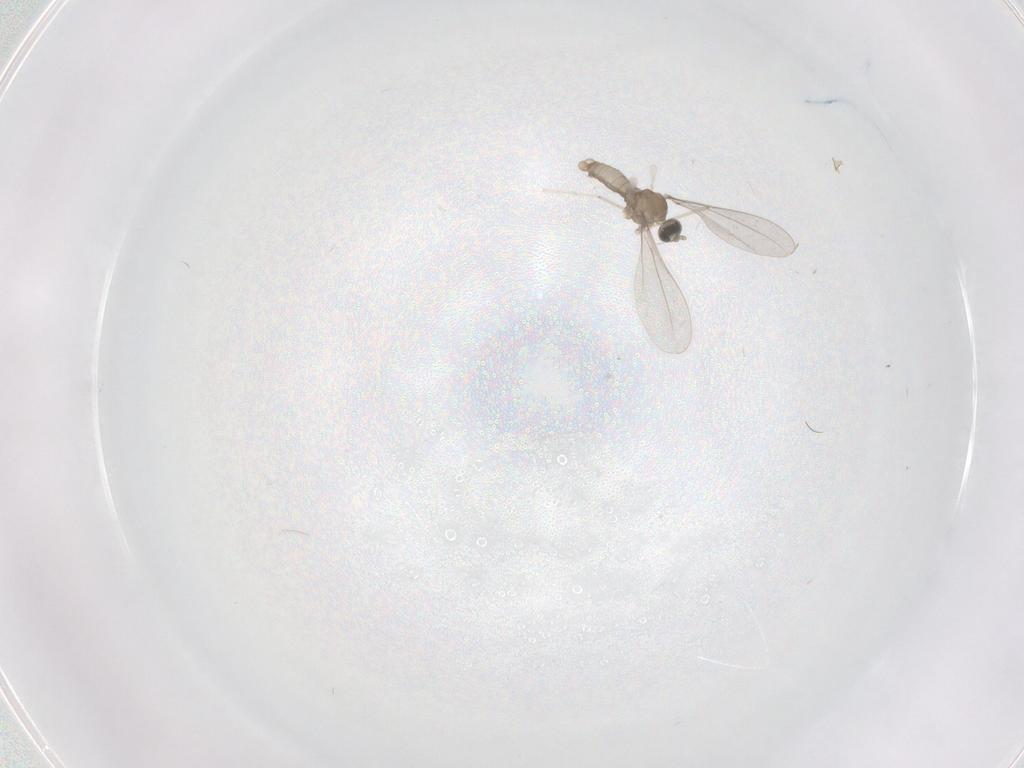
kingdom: Animalia
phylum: Arthropoda
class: Insecta
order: Diptera
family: Cecidomyiidae
